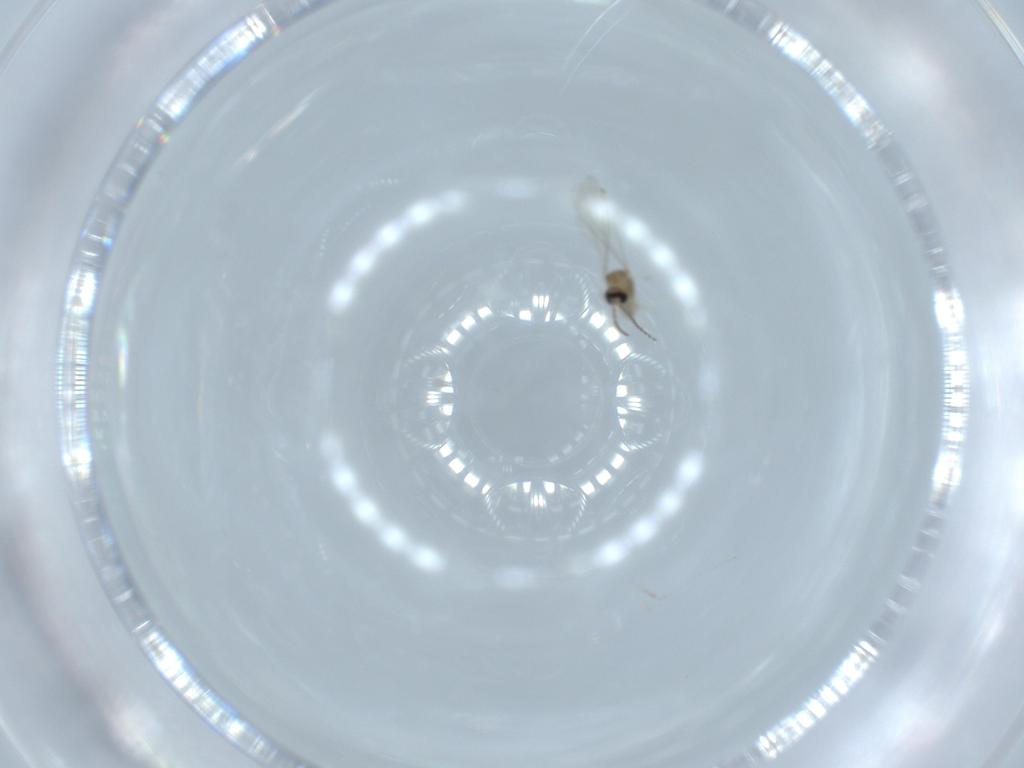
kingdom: Animalia
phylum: Arthropoda
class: Insecta
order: Diptera
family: Cecidomyiidae
